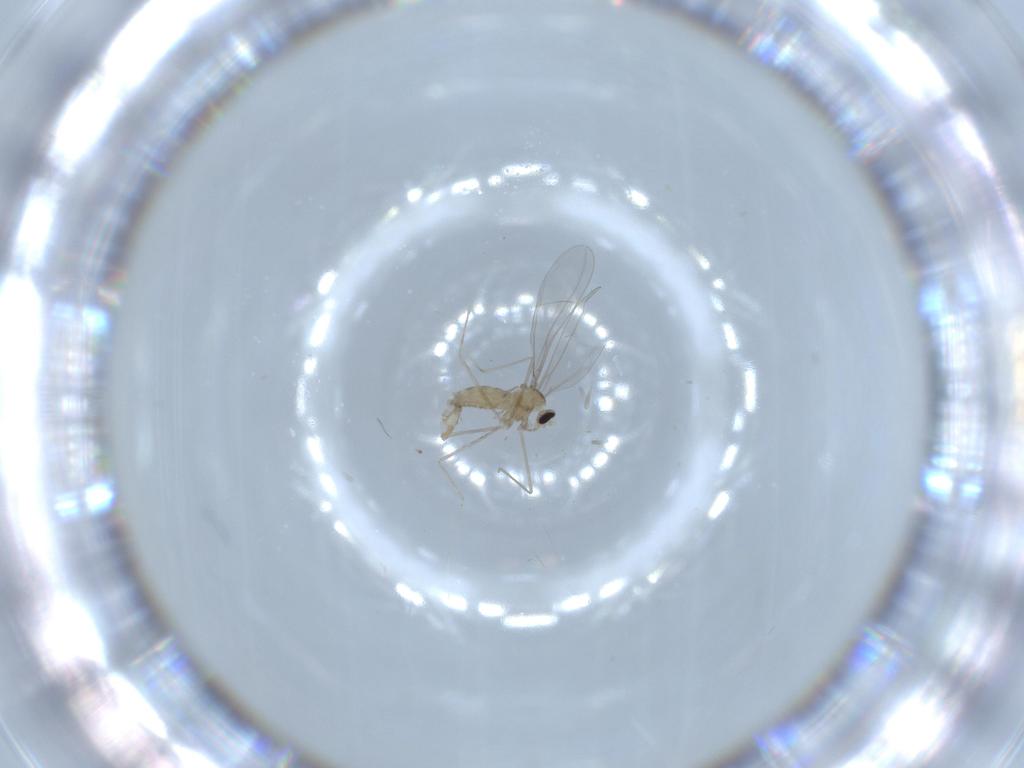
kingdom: Animalia
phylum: Arthropoda
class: Insecta
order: Diptera
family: Cecidomyiidae
